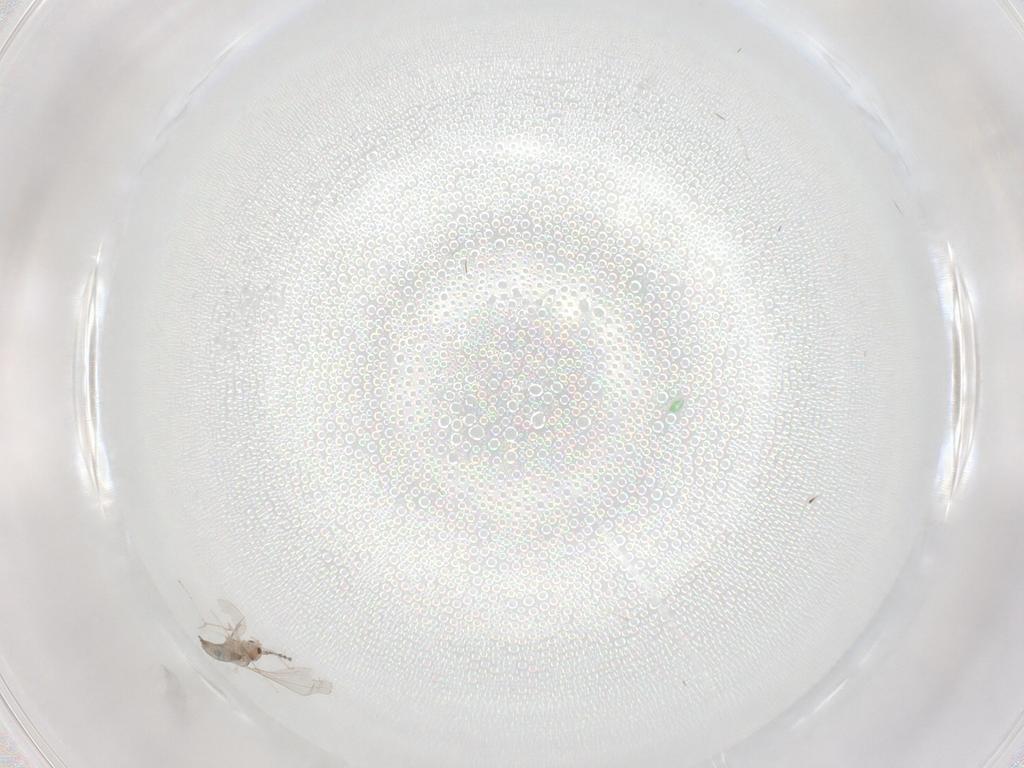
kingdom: Animalia
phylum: Arthropoda
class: Insecta
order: Diptera
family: Cecidomyiidae
